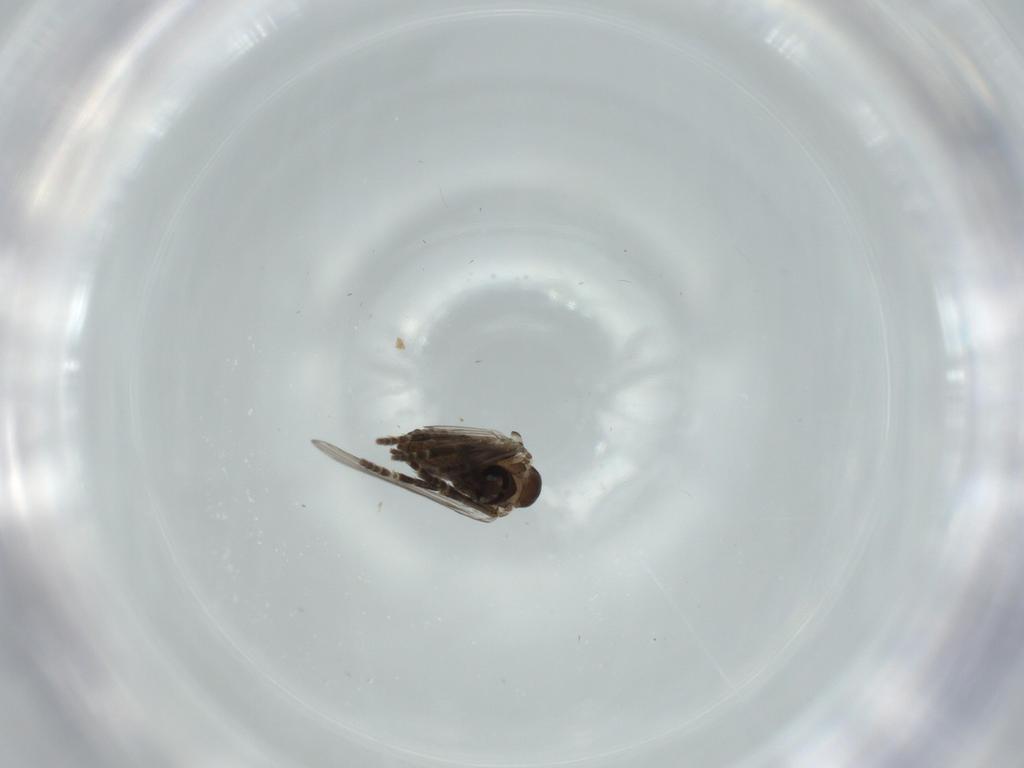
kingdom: Animalia
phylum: Arthropoda
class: Insecta
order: Diptera
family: Psychodidae
